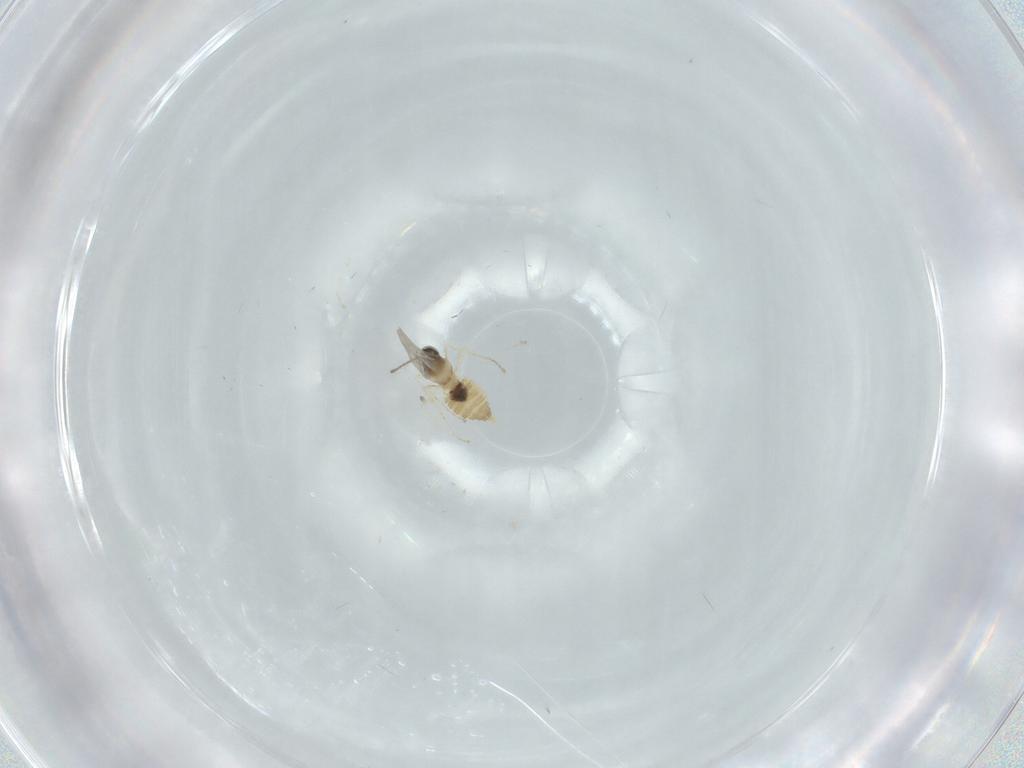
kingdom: Animalia
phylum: Arthropoda
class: Insecta
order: Diptera
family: Cecidomyiidae
